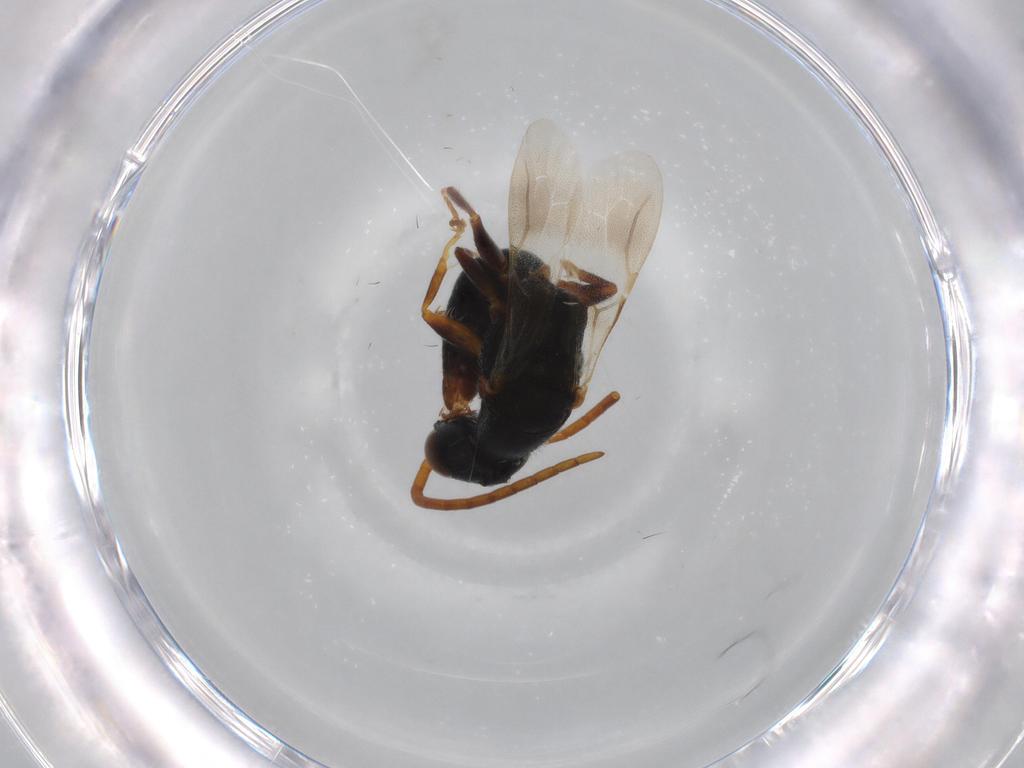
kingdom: Animalia
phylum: Arthropoda
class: Insecta
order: Hymenoptera
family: Bethylidae
